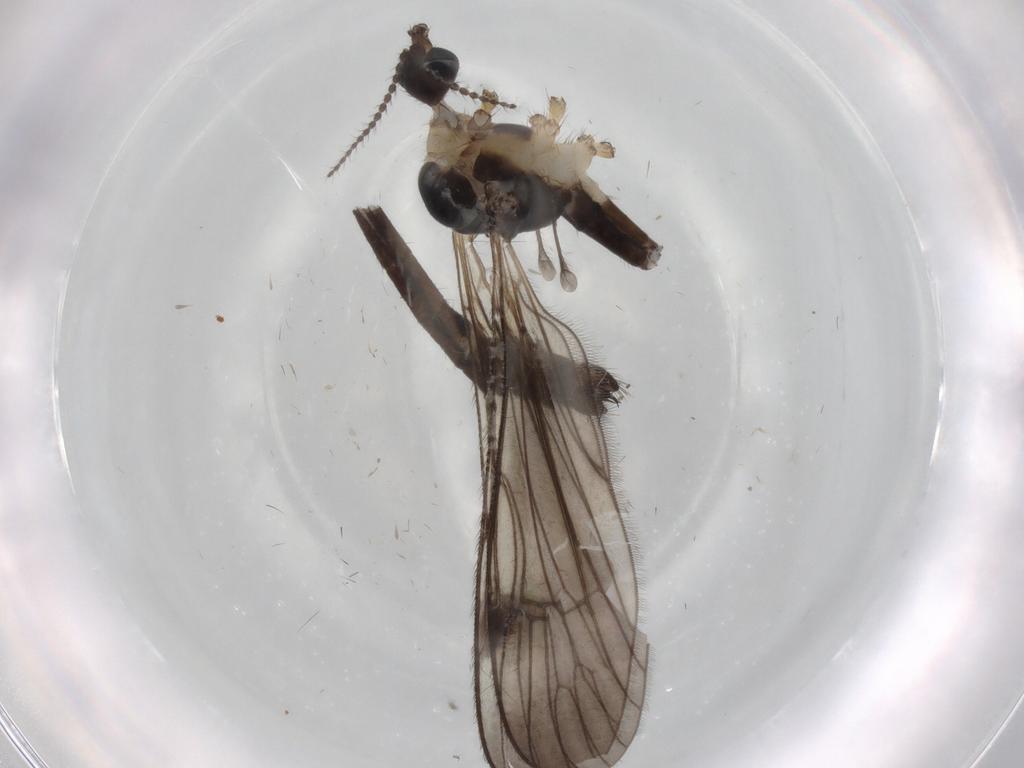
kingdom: Animalia
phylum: Arthropoda
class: Insecta
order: Diptera
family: Limoniidae
